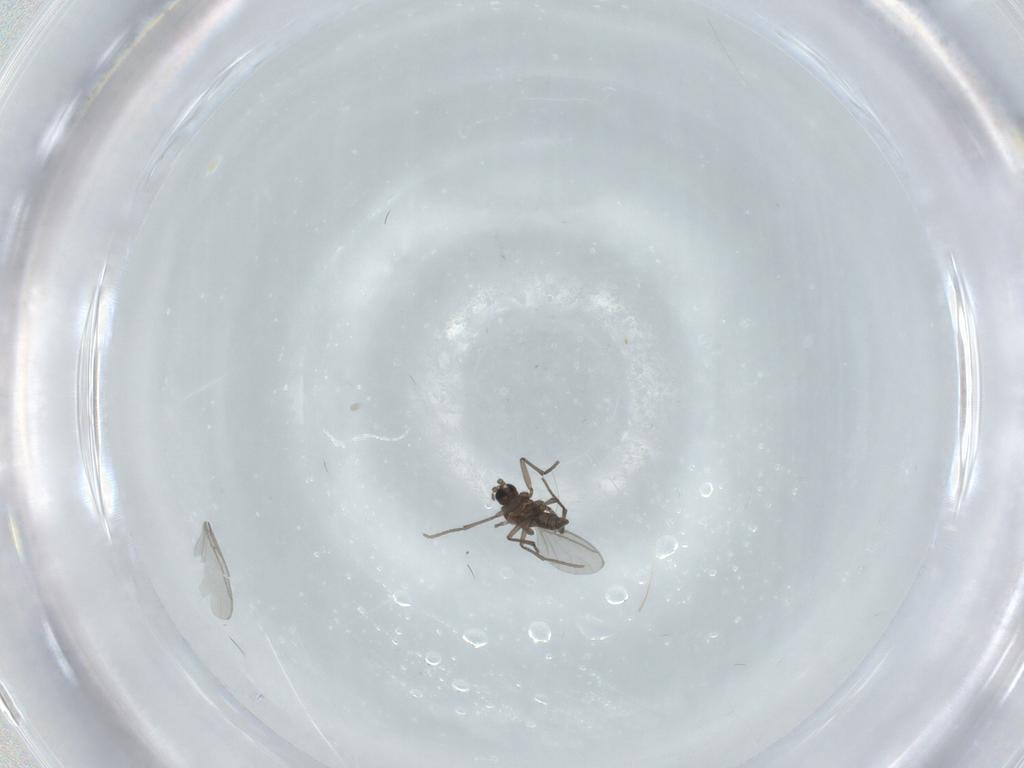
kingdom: Animalia
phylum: Arthropoda
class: Insecta
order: Diptera
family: Sciaridae
